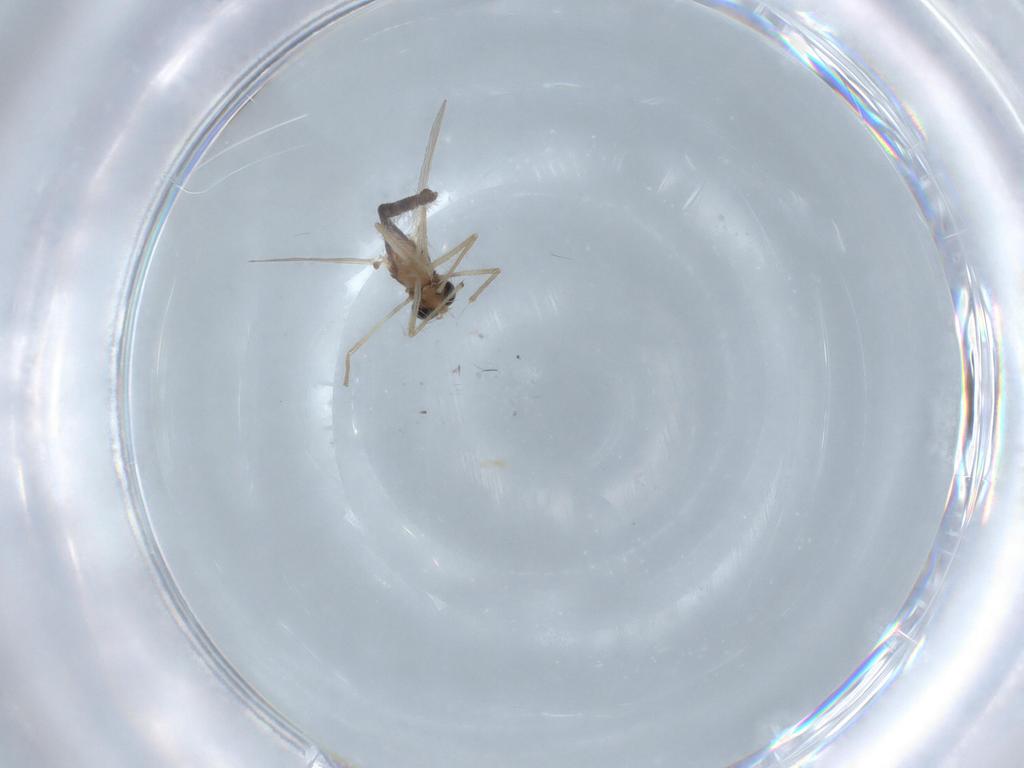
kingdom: Animalia
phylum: Arthropoda
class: Insecta
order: Diptera
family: Chironomidae
